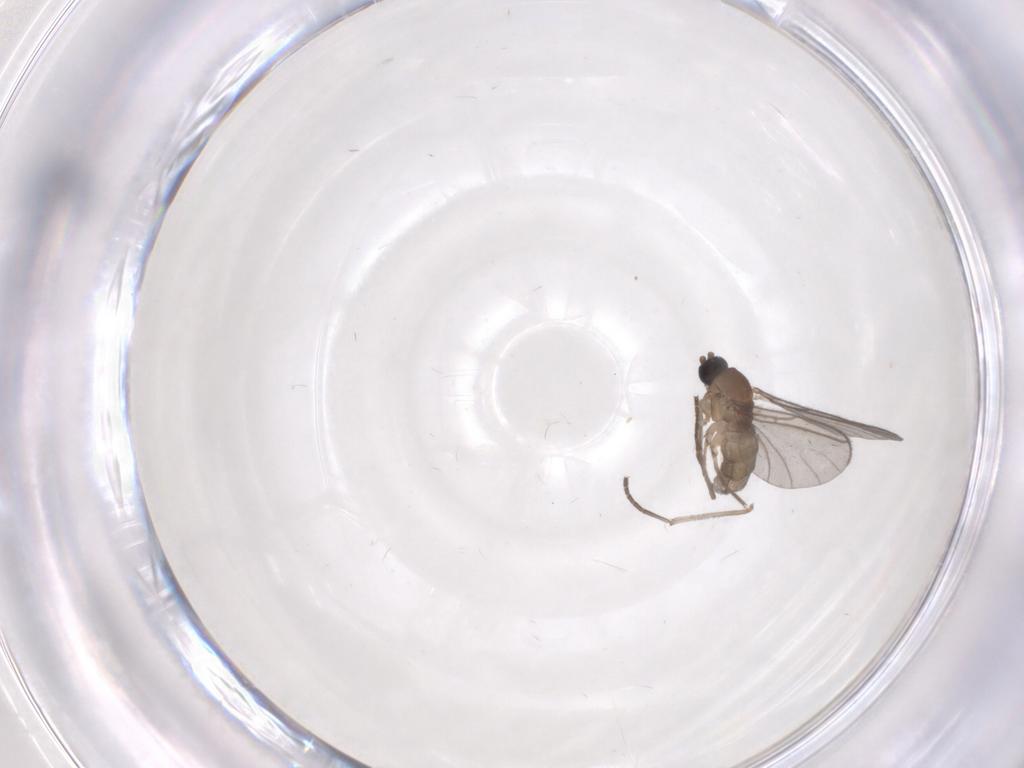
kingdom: Animalia
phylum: Arthropoda
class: Insecta
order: Diptera
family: Sciaridae
